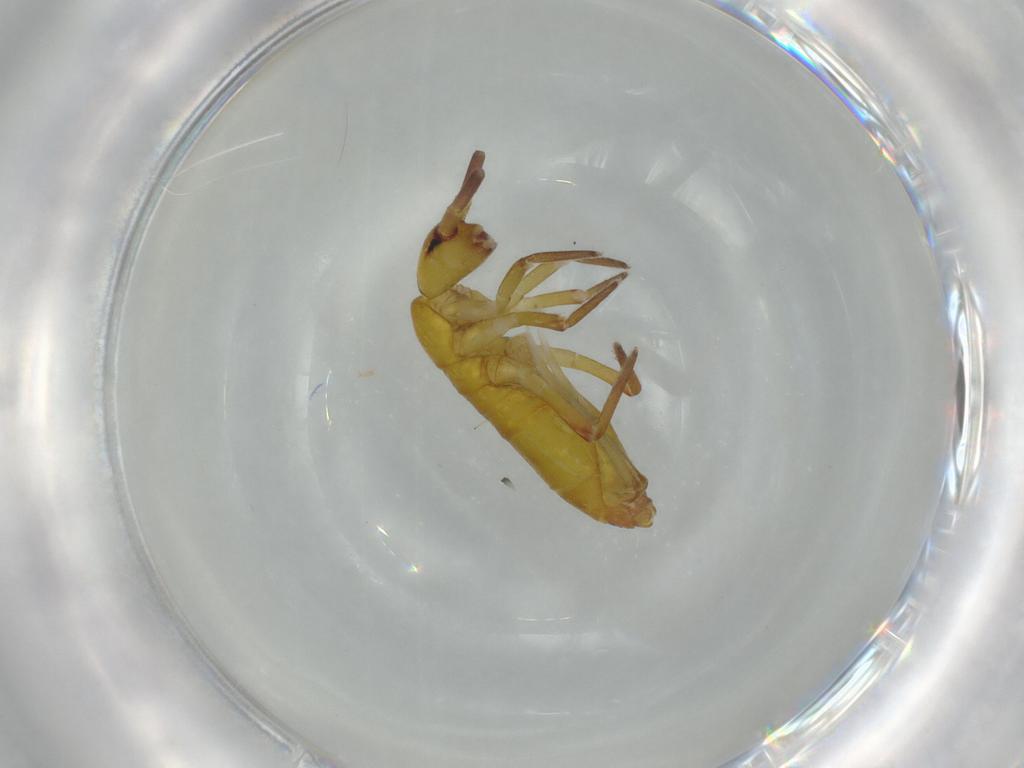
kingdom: Animalia
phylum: Arthropoda
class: Collembola
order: Entomobryomorpha
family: Tomoceridae
